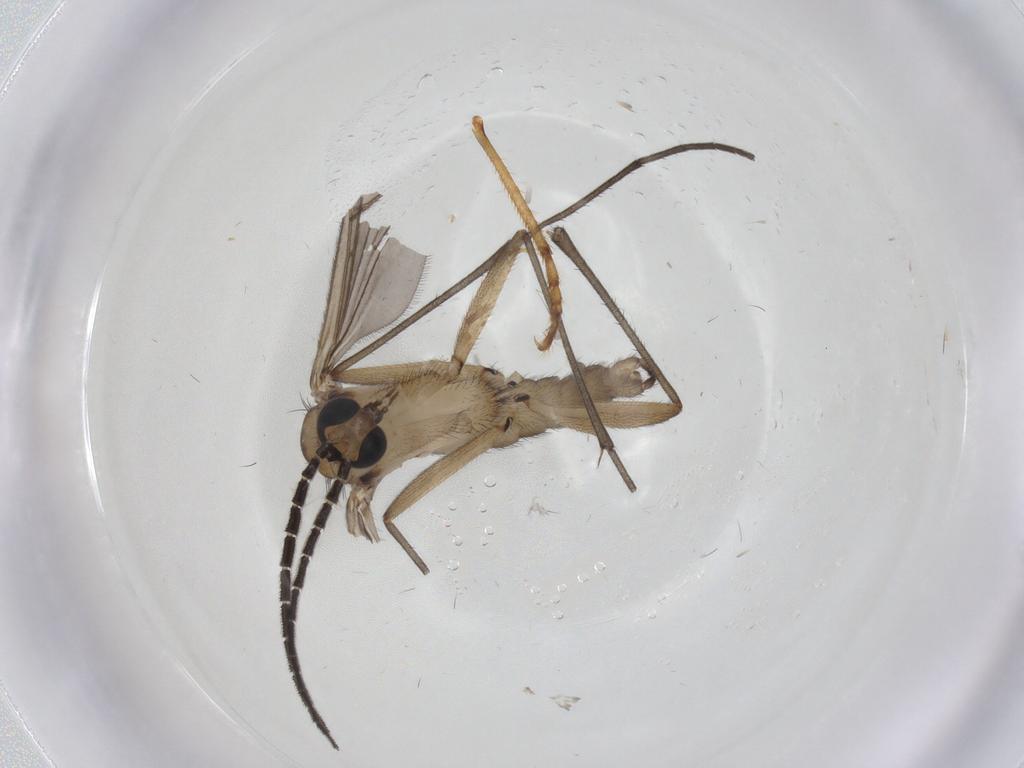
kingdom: Animalia
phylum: Arthropoda
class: Insecta
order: Diptera
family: Sciaridae
